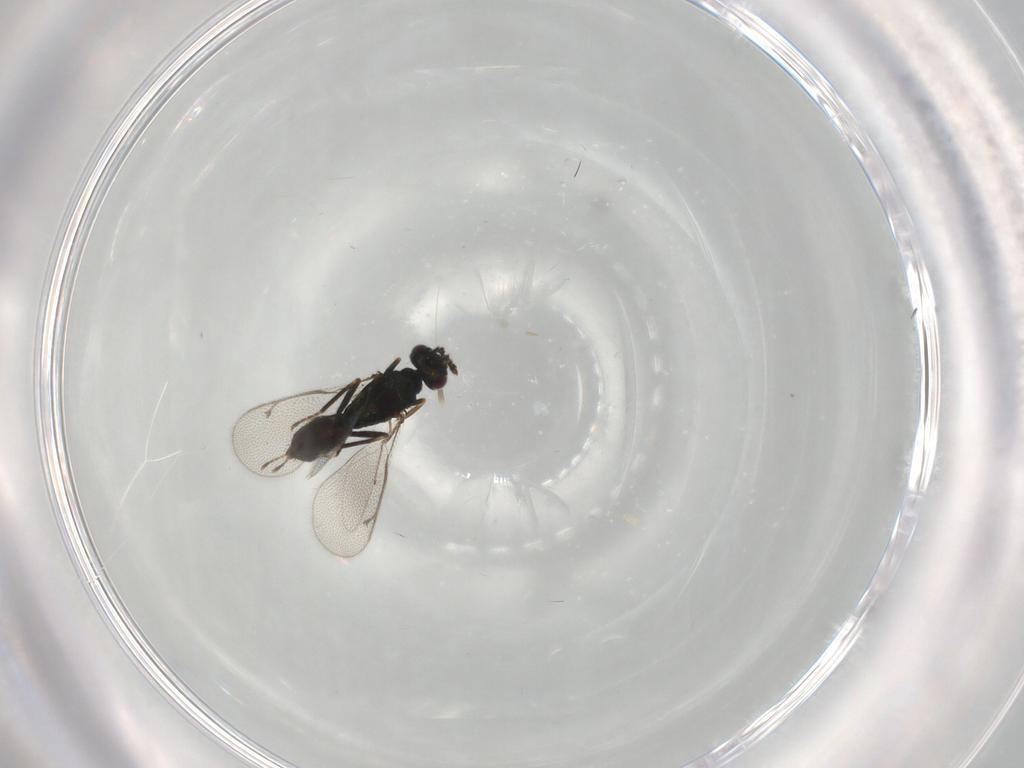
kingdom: Animalia
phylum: Arthropoda
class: Insecta
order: Hymenoptera
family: Eulophidae
